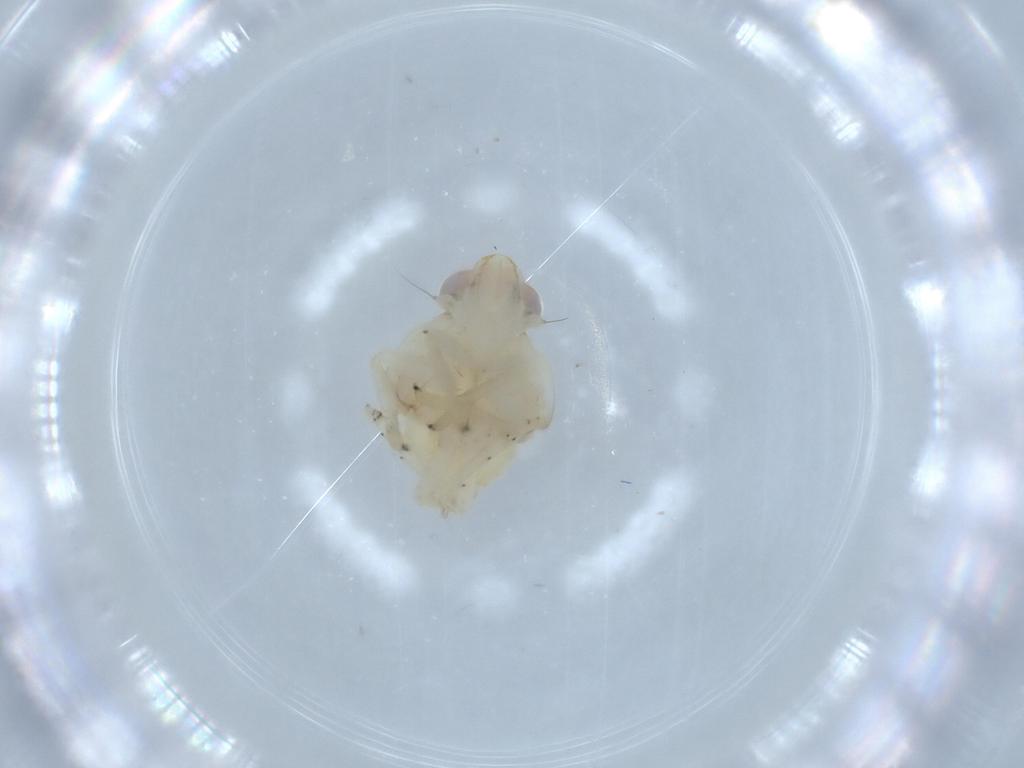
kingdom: Animalia
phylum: Arthropoda
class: Insecta
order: Hemiptera
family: Nogodinidae
